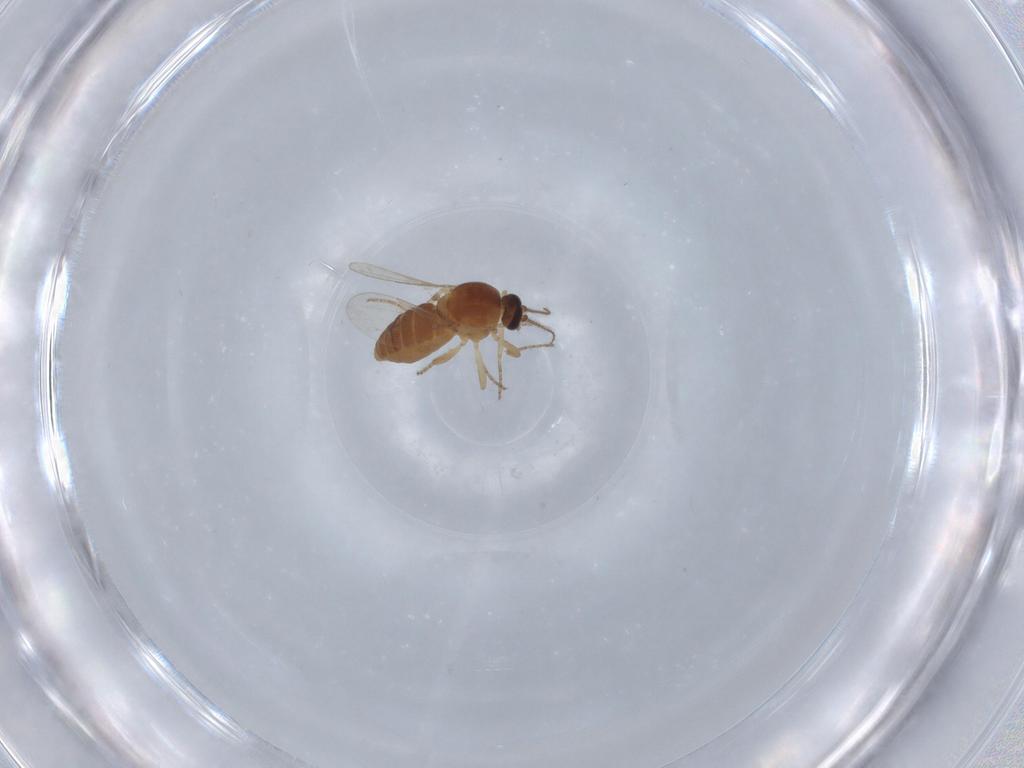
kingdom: Animalia
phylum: Arthropoda
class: Insecta
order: Diptera
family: Ceratopogonidae
